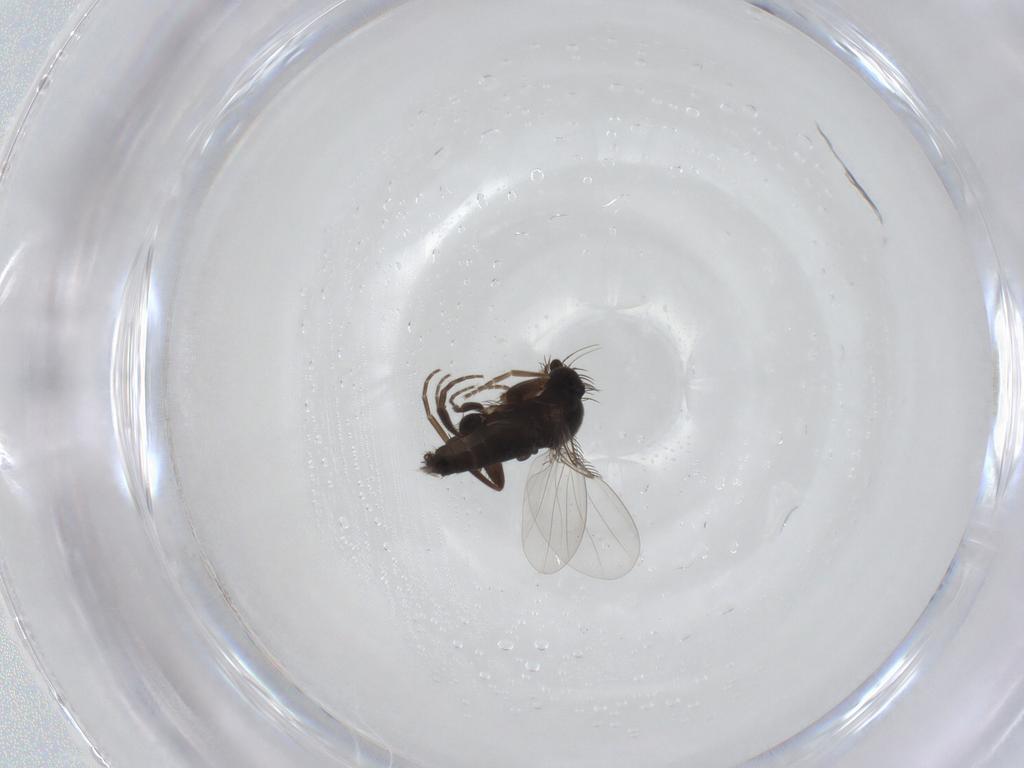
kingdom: Animalia
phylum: Arthropoda
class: Insecta
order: Diptera
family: Phoridae
